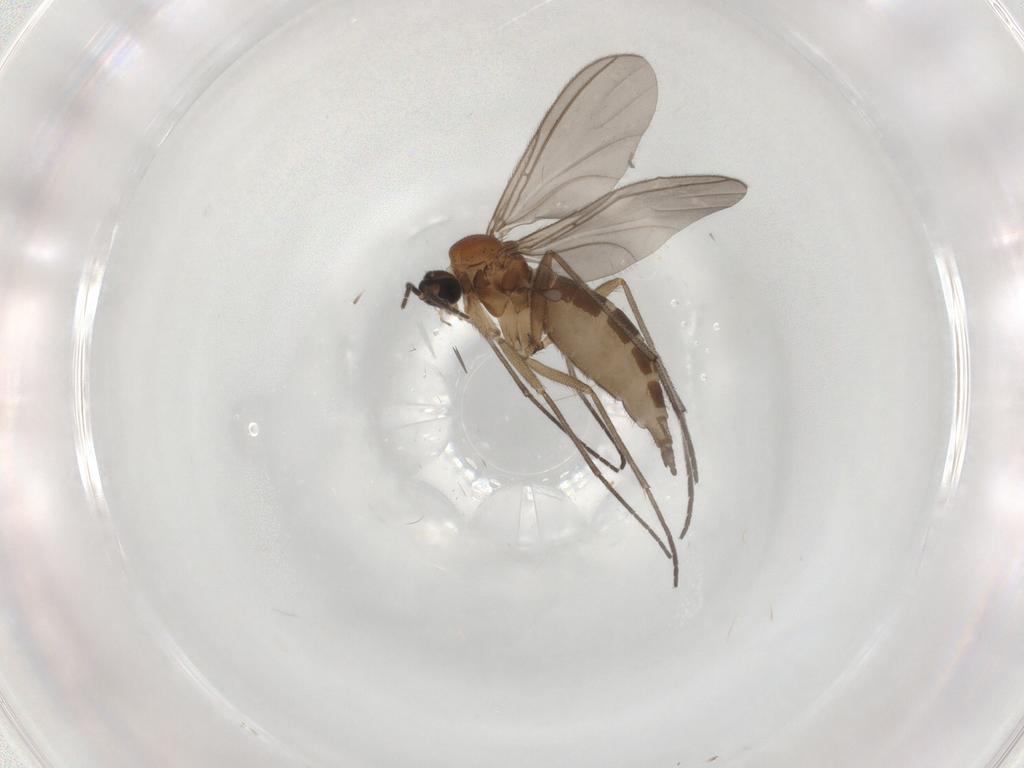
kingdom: Animalia
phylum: Arthropoda
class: Insecta
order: Diptera
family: Sciaridae
